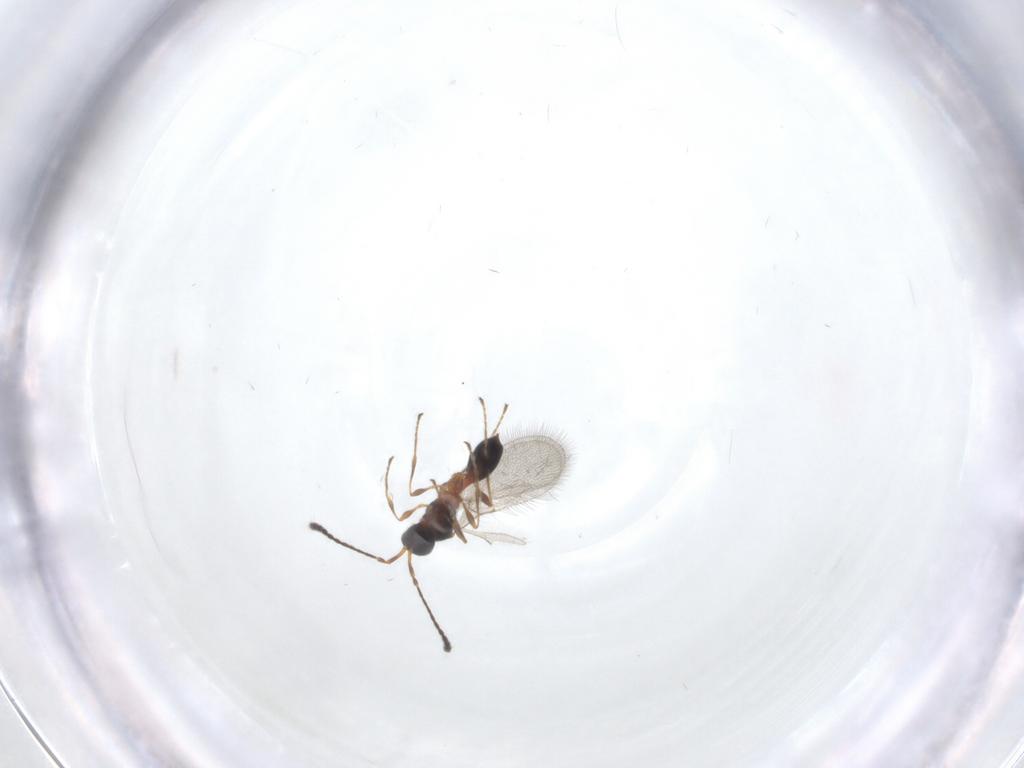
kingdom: Animalia
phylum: Arthropoda
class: Insecta
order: Hymenoptera
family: Diapriidae
